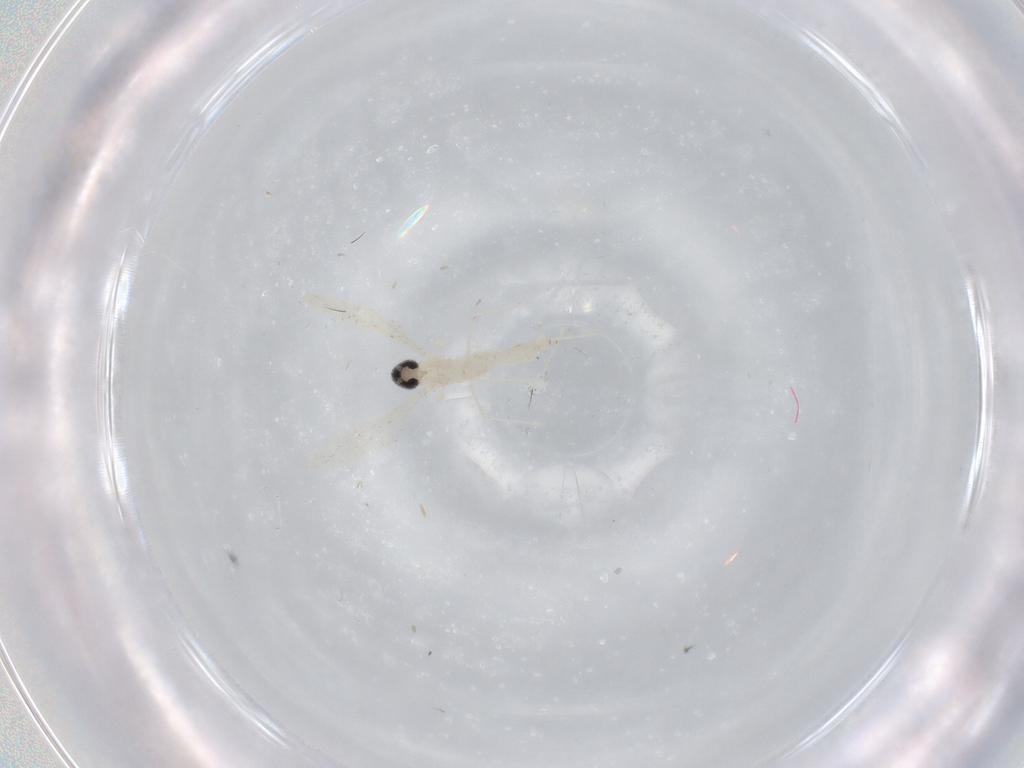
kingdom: Animalia
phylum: Arthropoda
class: Insecta
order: Diptera
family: Cecidomyiidae
